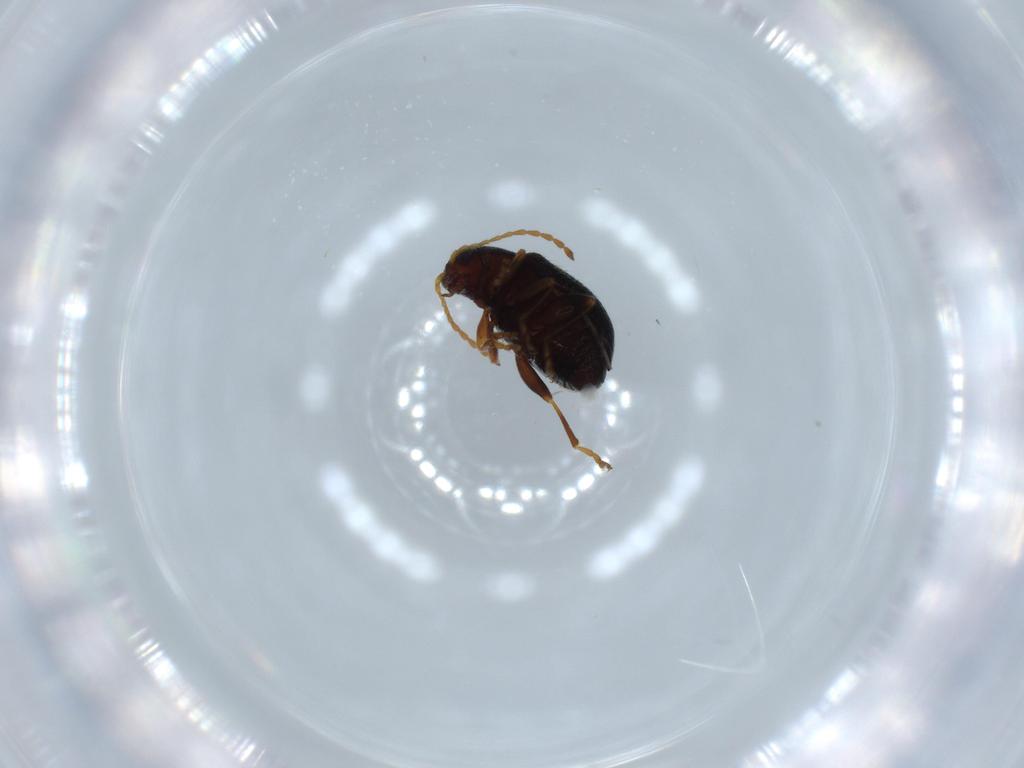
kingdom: Animalia
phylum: Arthropoda
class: Insecta
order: Coleoptera
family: Chrysomelidae
